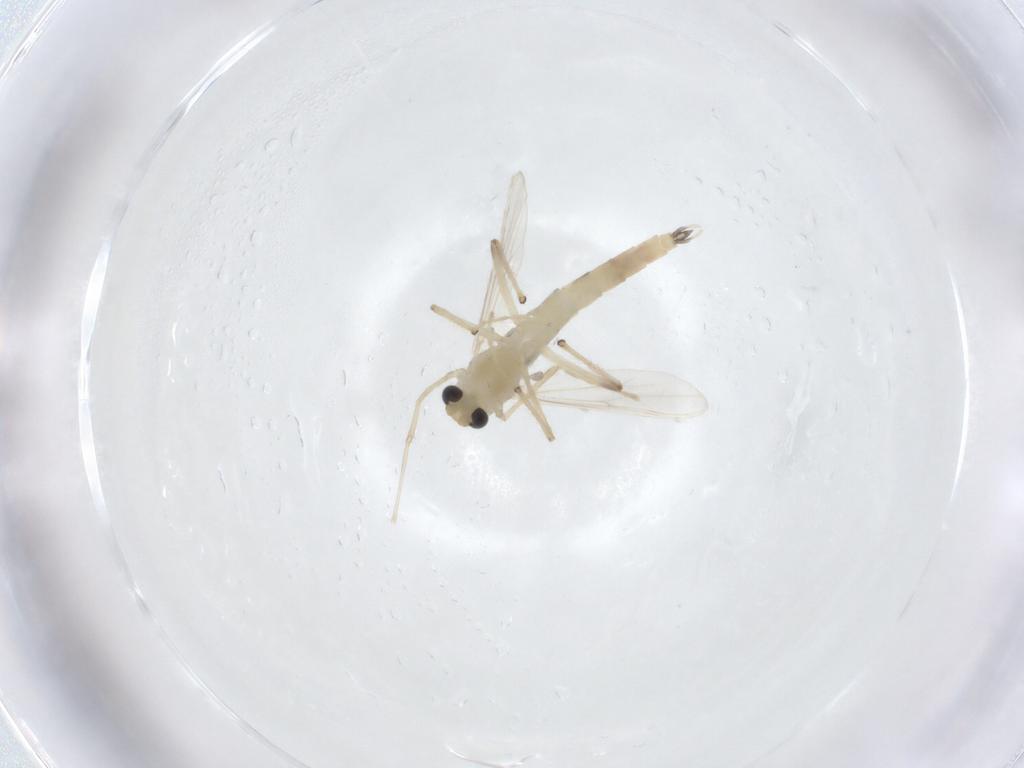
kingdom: Animalia
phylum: Arthropoda
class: Insecta
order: Diptera
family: Chironomidae
